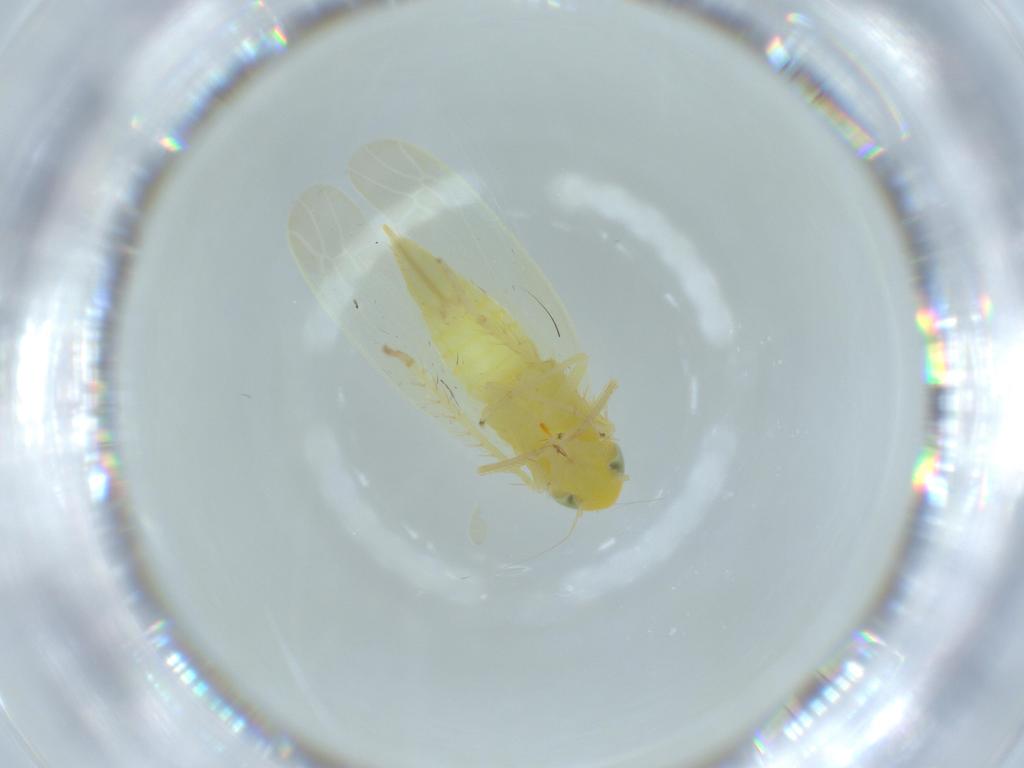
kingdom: Animalia
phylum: Arthropoda
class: Insecta
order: Hemiptera
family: Cicadellidae
